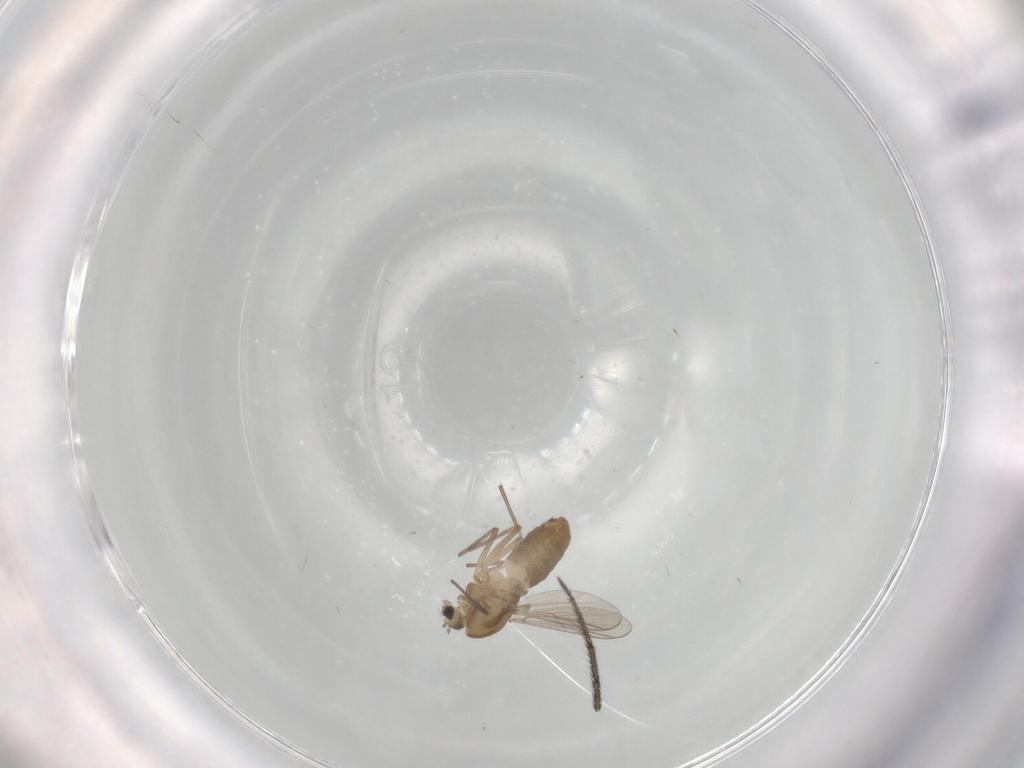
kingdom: Animalia
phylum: Arthropoda
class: Insecta
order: Diptera
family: Chironomidae
